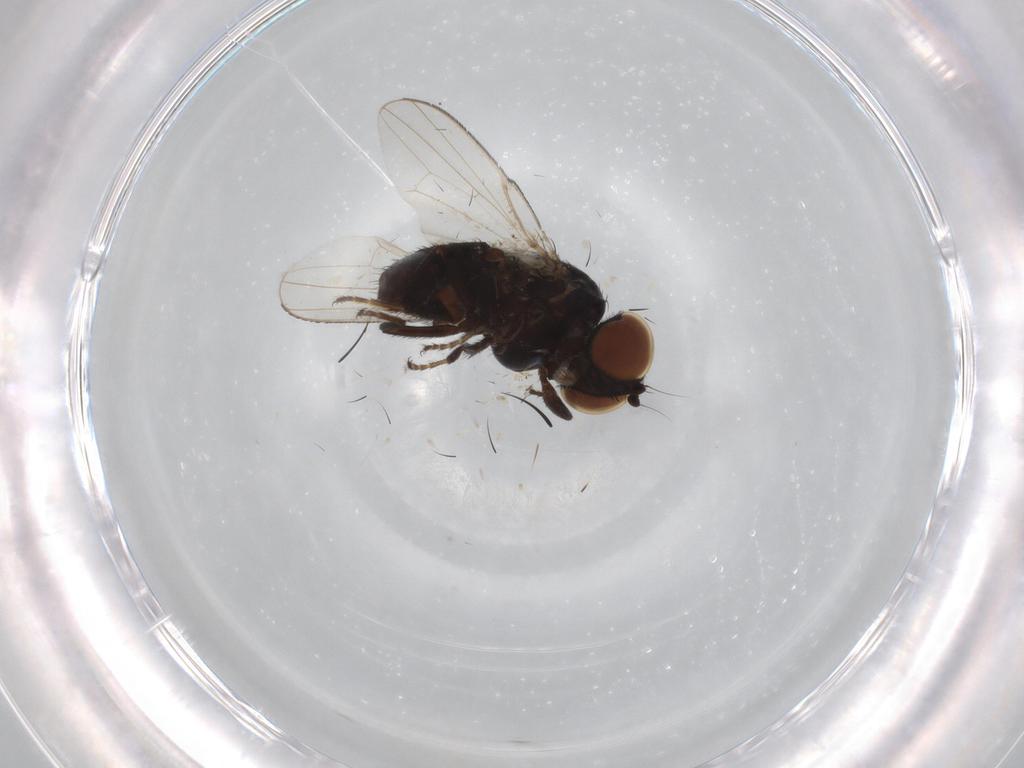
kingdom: Animalia
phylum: Arthropoda
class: Insecta
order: Diptera
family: Scatopsidae
